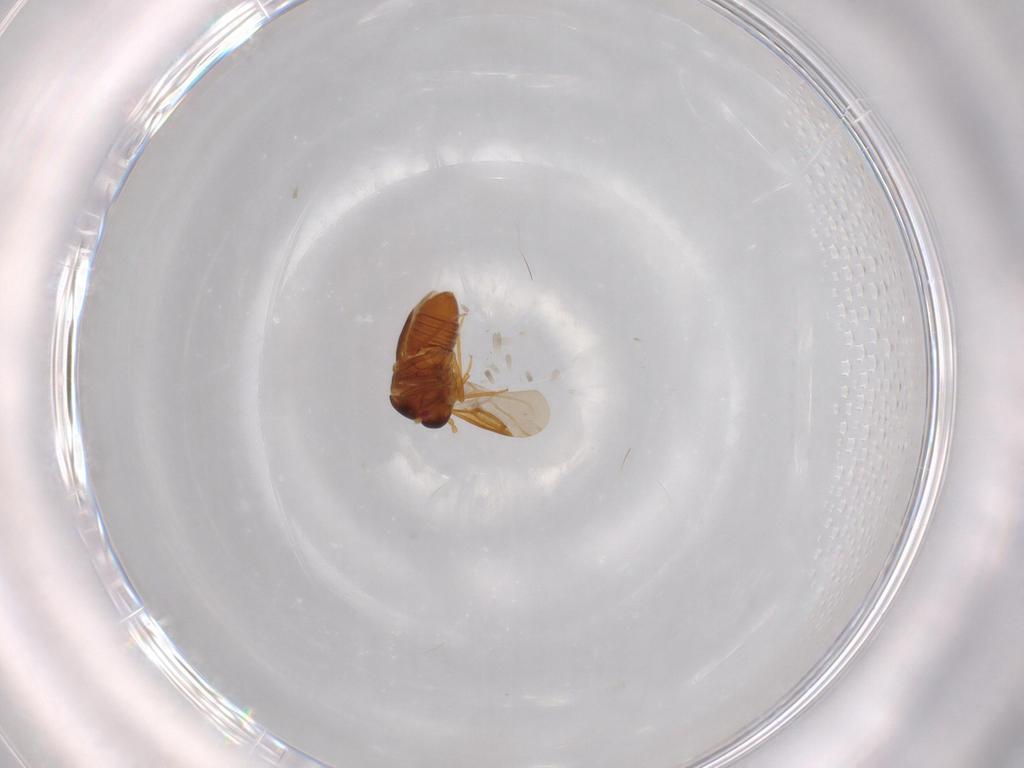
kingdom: Animalia
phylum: Arthropoda
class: Insecta
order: Hemiptera
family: Schizopteridae
